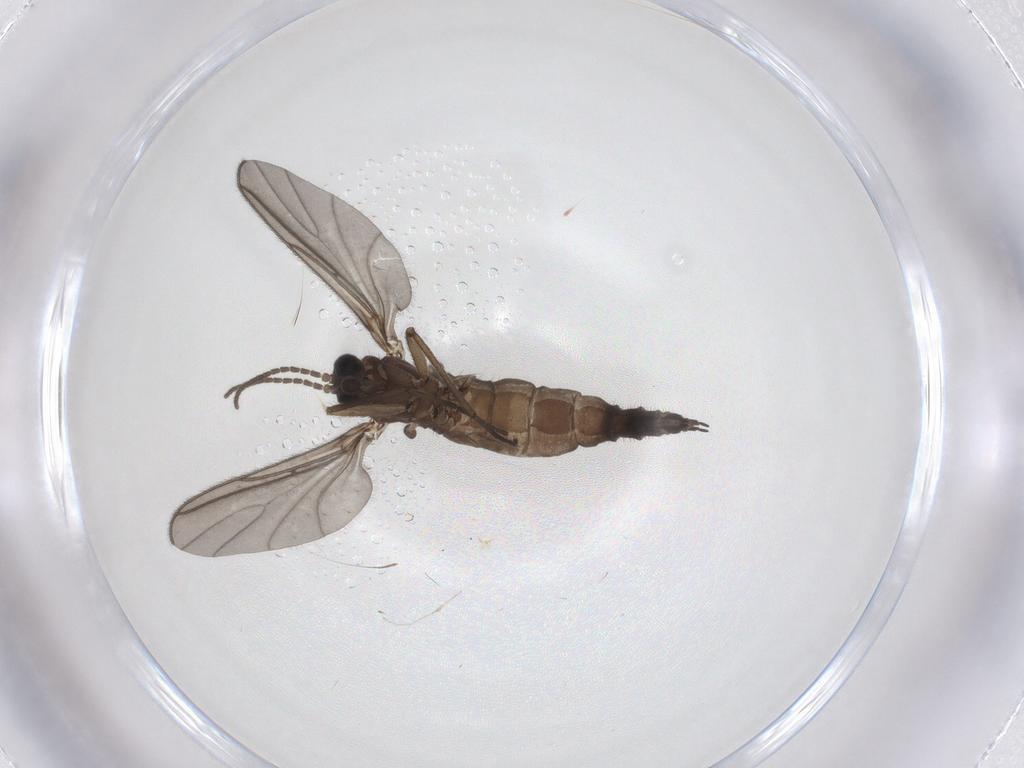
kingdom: Animalia
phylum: Arthropoda
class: Insecta
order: Diptera
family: Sciaridae
